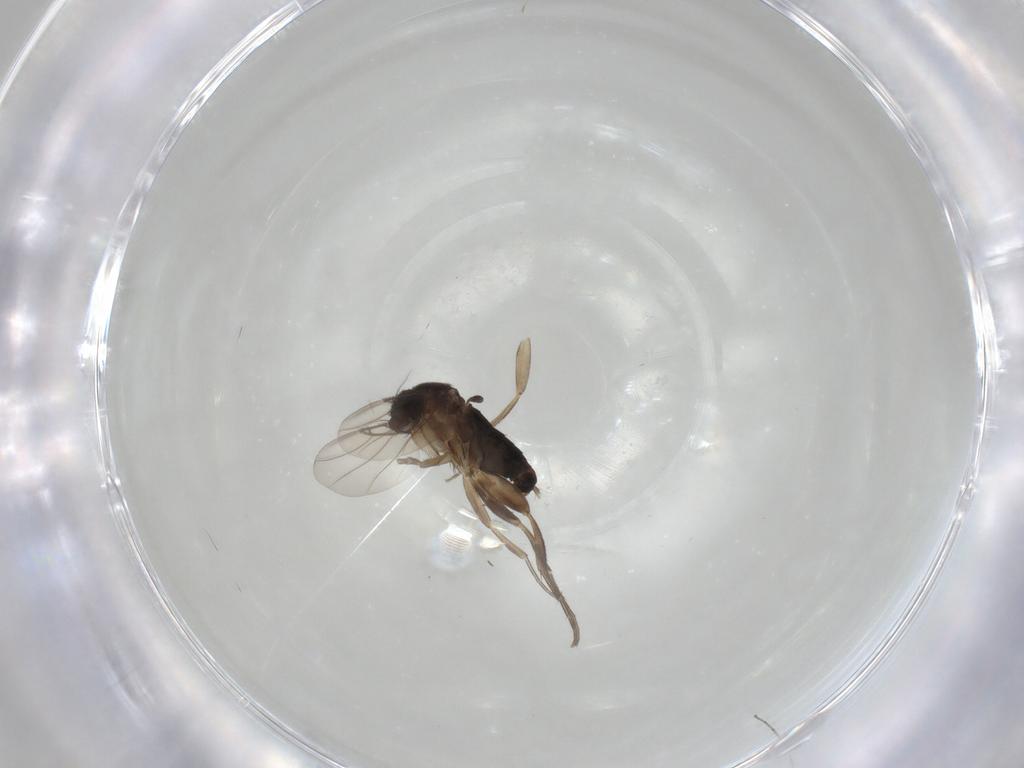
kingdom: Animalia
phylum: Arthropoda
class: Insecta
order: Diptera
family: Phoridae
